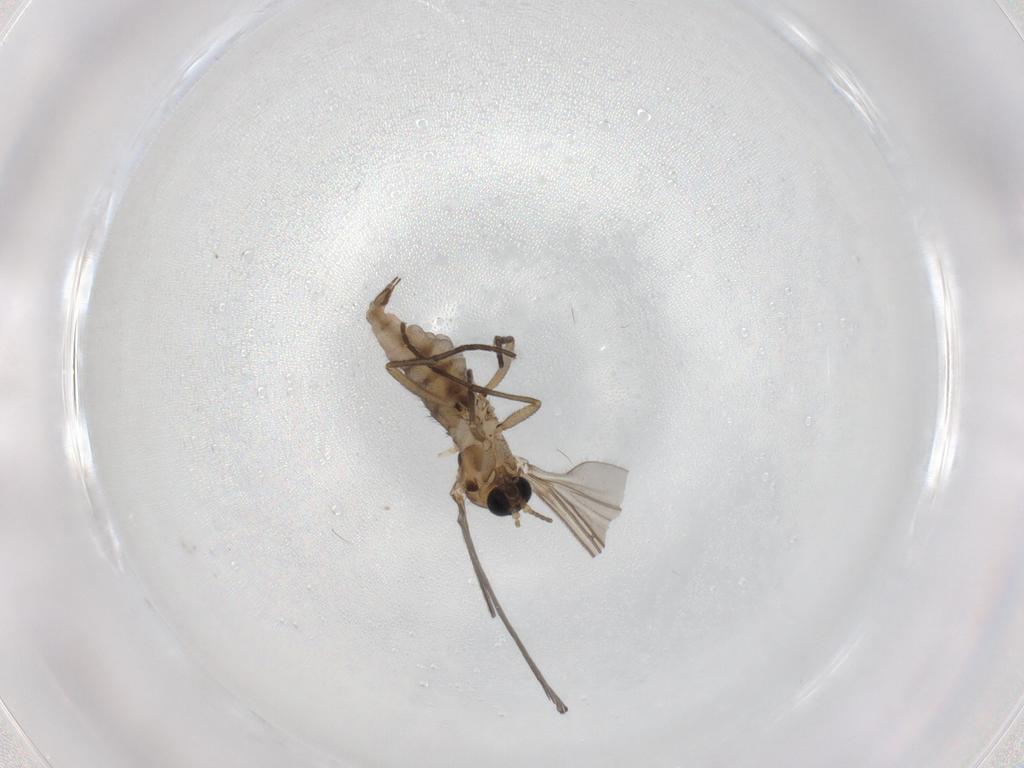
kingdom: Animalia
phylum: Arthropoda
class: Insecta
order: Diptera
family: Sciaridae
